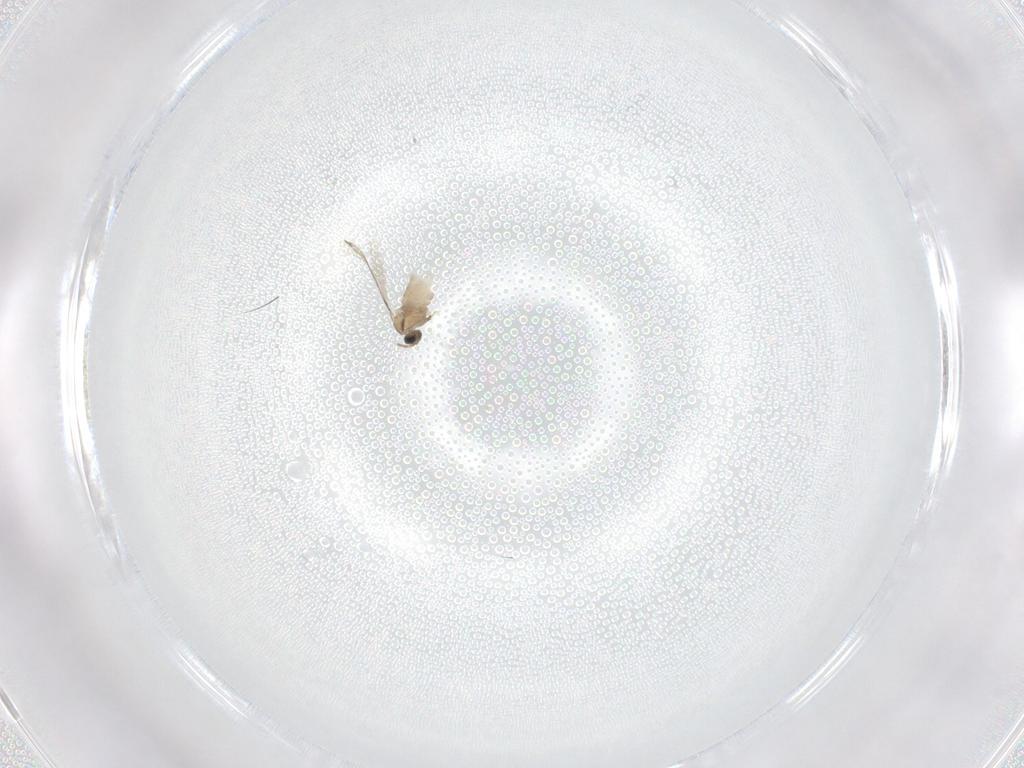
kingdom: Animalia
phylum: Arthropoda
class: Insecta
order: Diptera
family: Cecidomyiidae
